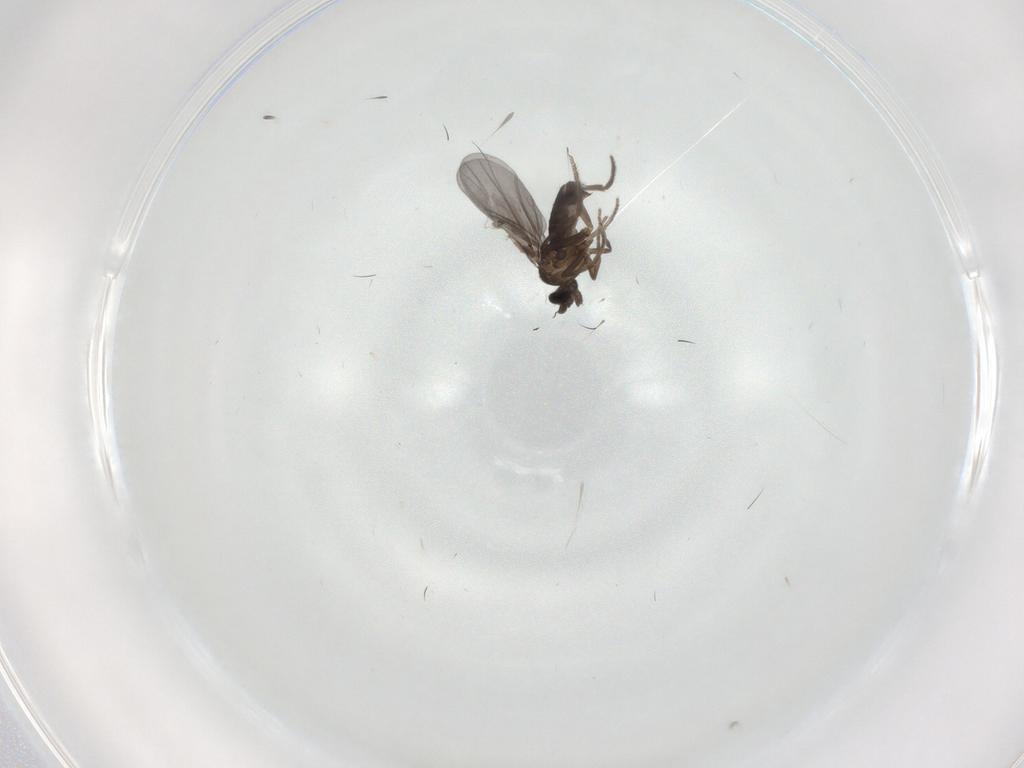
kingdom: Animalia
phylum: Arthropoda
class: Insecta
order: Diptera
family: Phoridae
